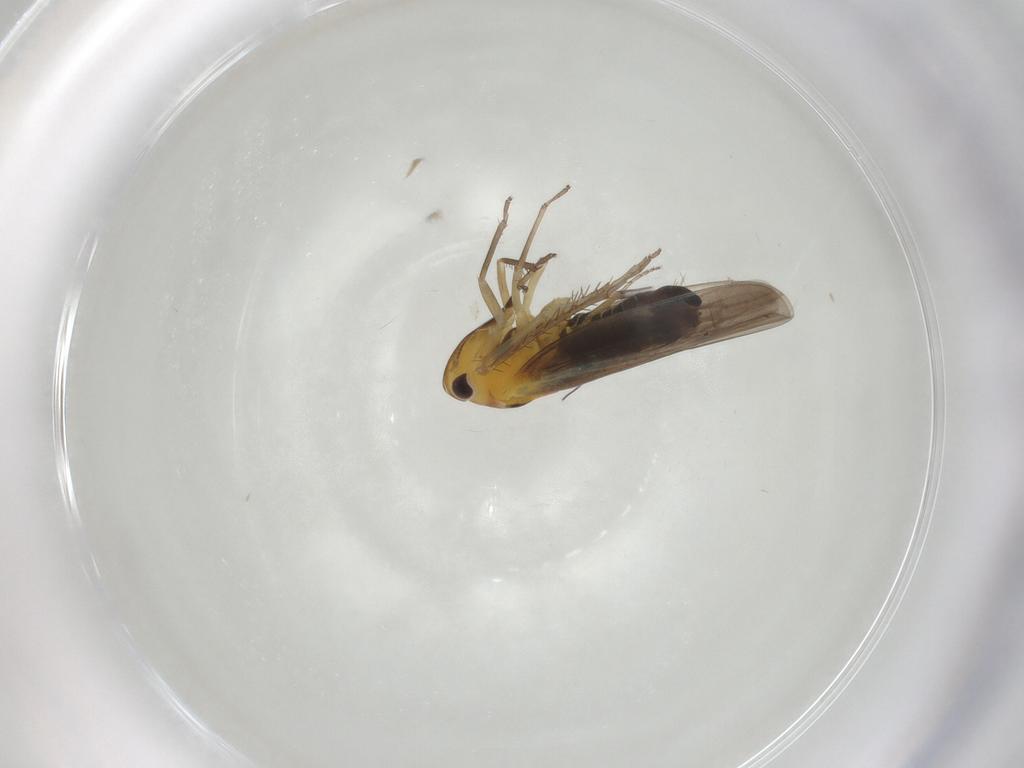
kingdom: Animalia
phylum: Arthropoda
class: Insecta
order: Hemiptera
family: Cicadellidae
